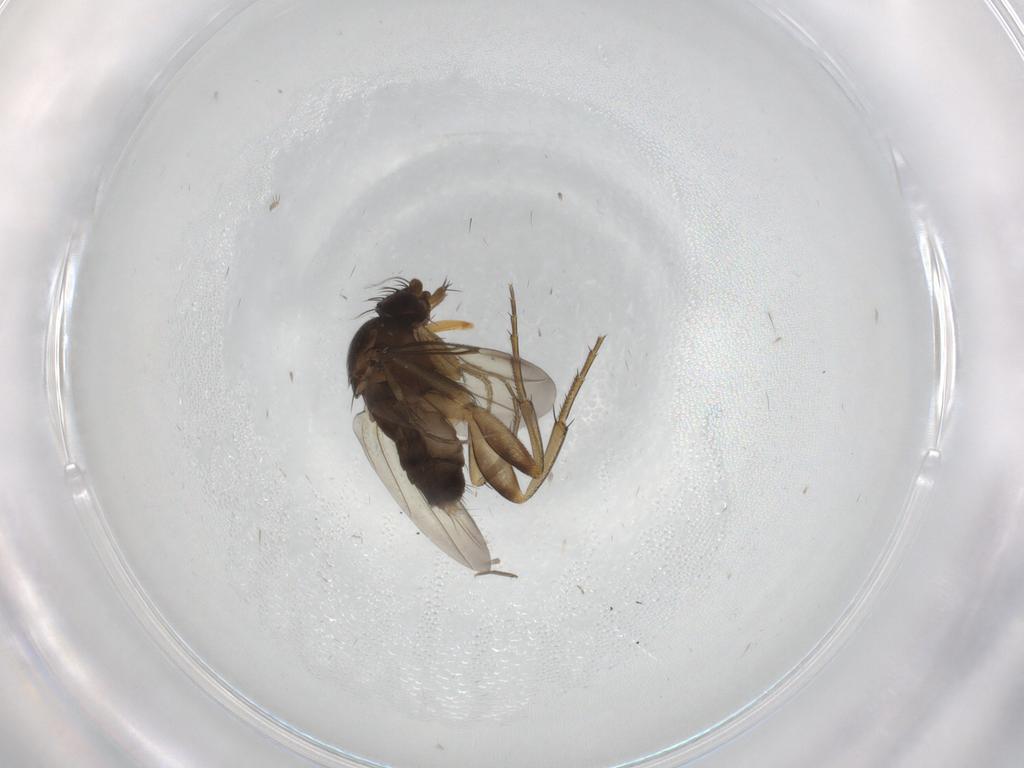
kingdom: Animalia
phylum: Arthropoda
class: Insecta
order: Diptera
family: Phoridae
